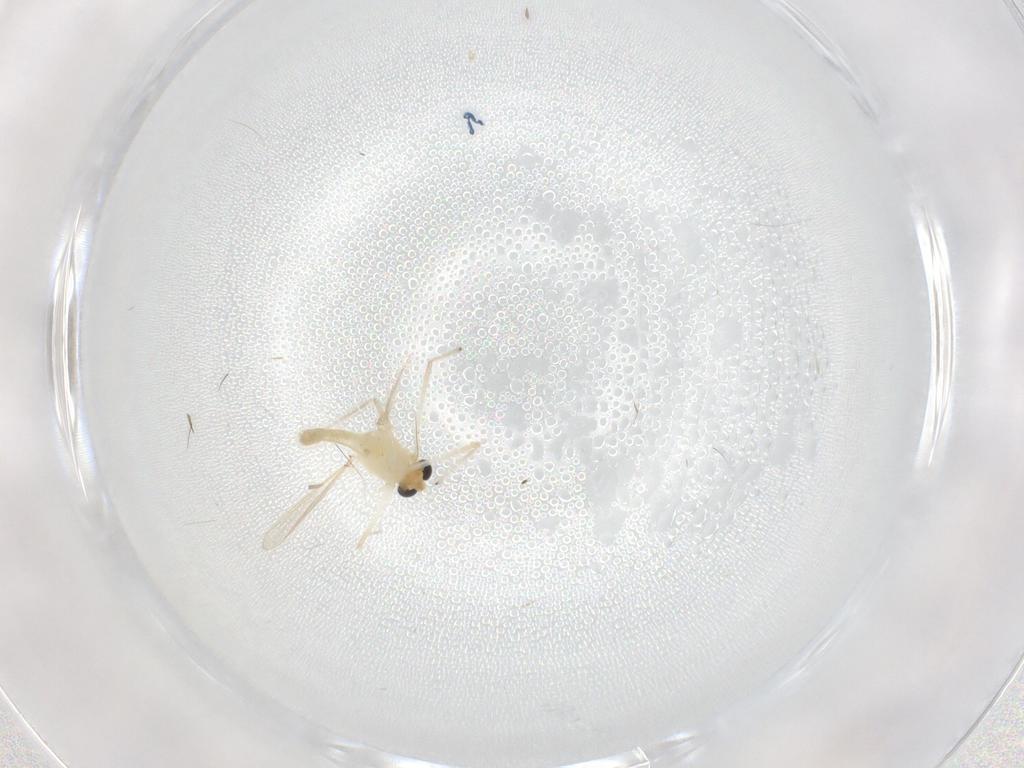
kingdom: Animalia
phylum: Arthropoda
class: Insecta
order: Diptera
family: Chironomidae
